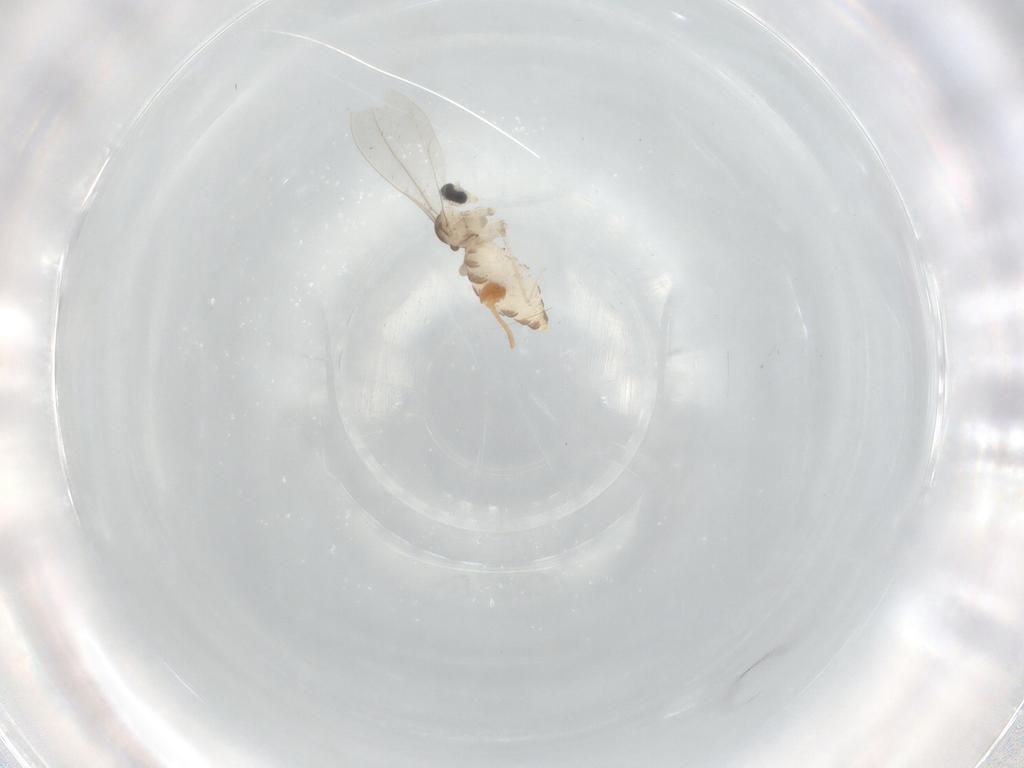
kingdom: Animalia
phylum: Arthropoda
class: Insecta
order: Diptera
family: Cecidomyiidae
